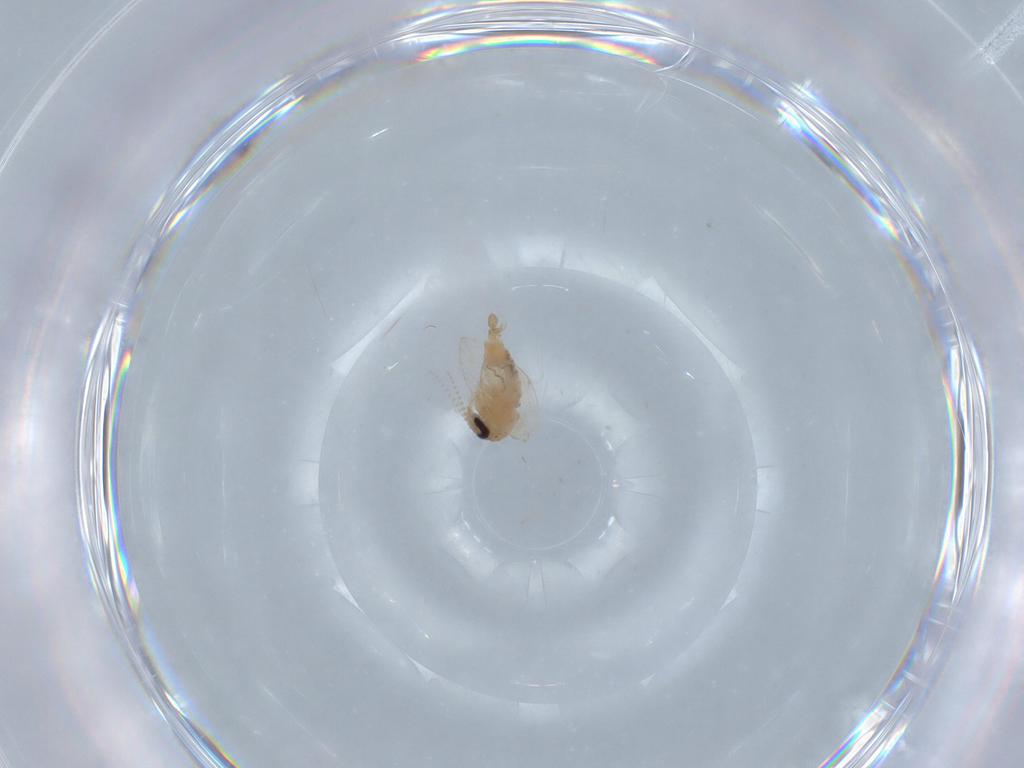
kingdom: Animalia
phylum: Arthropoda
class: Insecta
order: Diptera
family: Psychodidae
